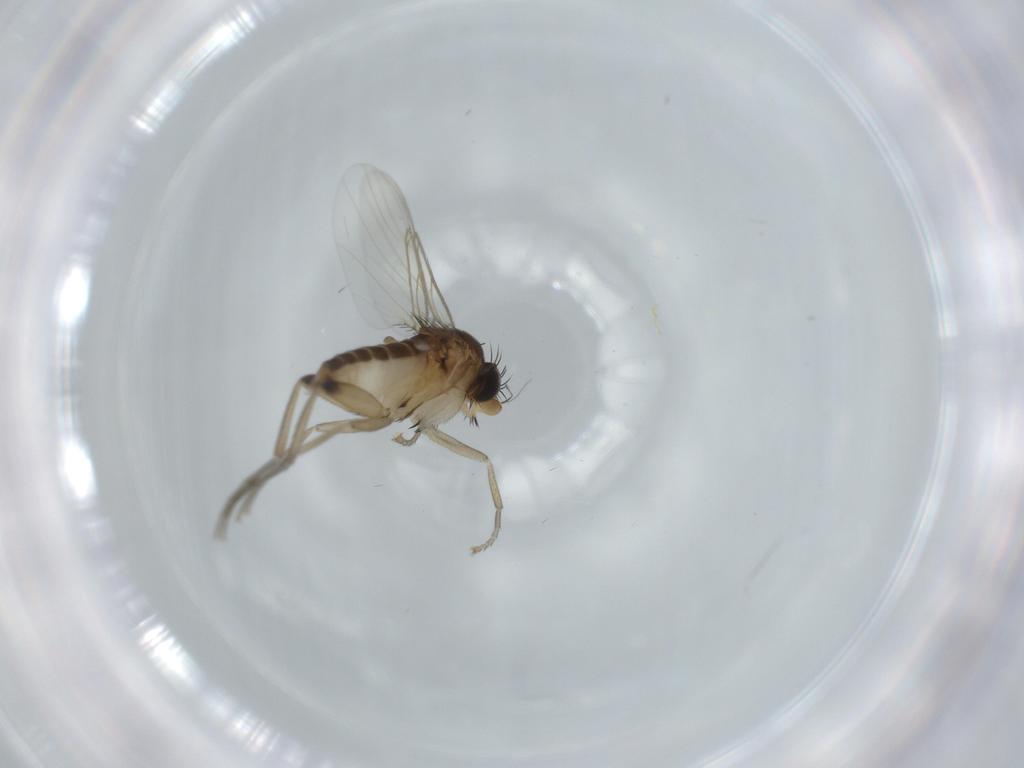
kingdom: Animalia
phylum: Arthropoda
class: Insecta
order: Diptera
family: Phoridae
